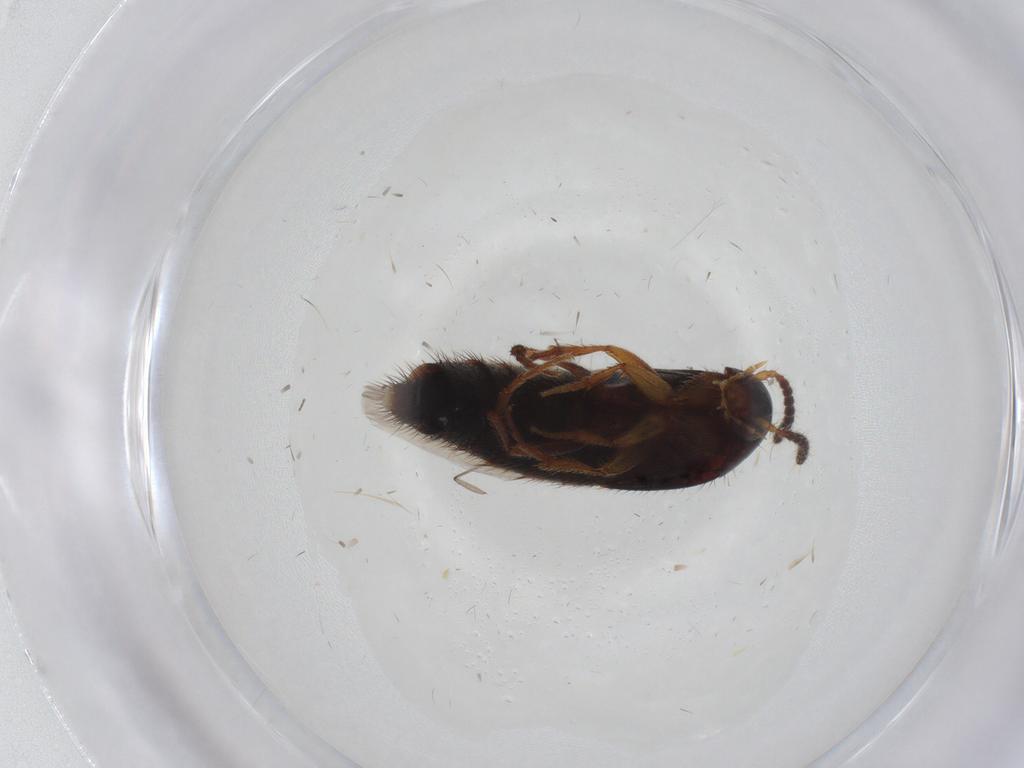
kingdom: Animalia
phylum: Arthropoda
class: Insecta
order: Coleoptera
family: Staphylinidae
